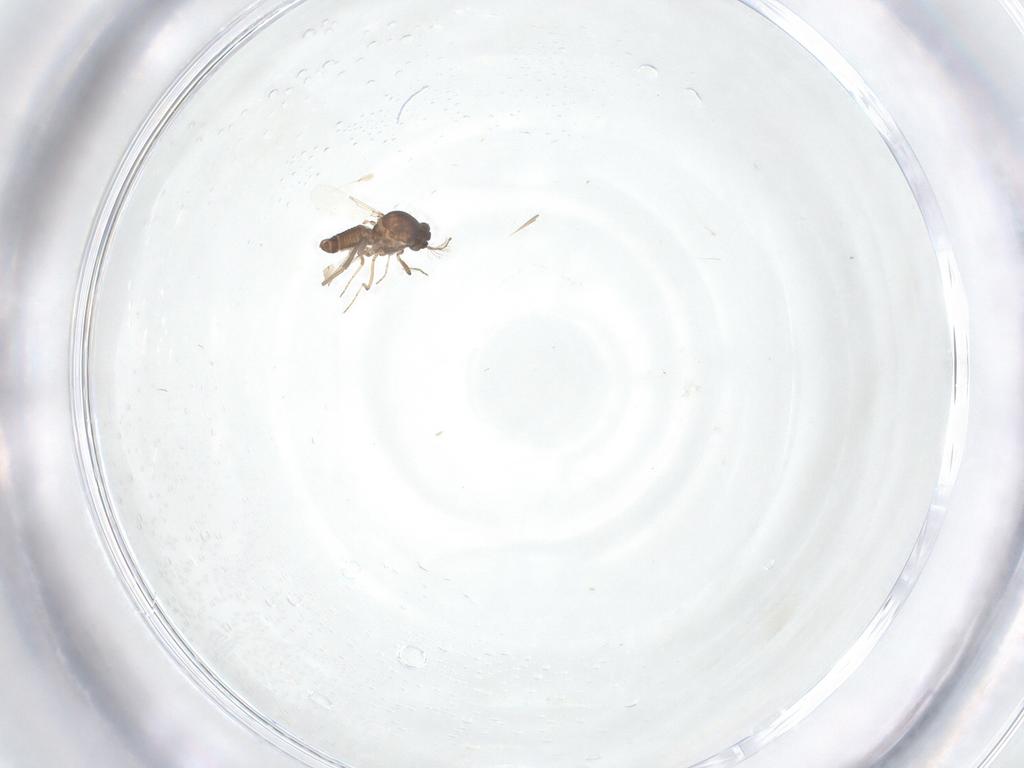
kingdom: Animalia
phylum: Arthropoda
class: Insecta
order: Diptera
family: Cecidomyiidae
